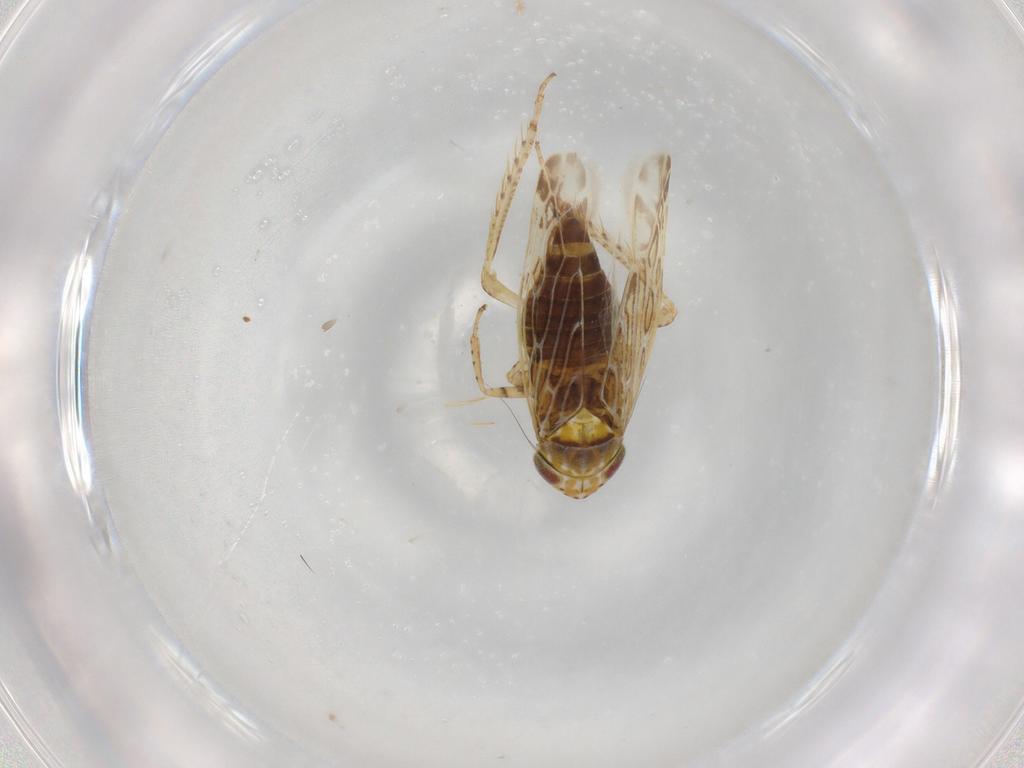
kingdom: Animalia
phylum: Arthropoda
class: Insecta
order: Hemiptera
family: Cicadellidae
